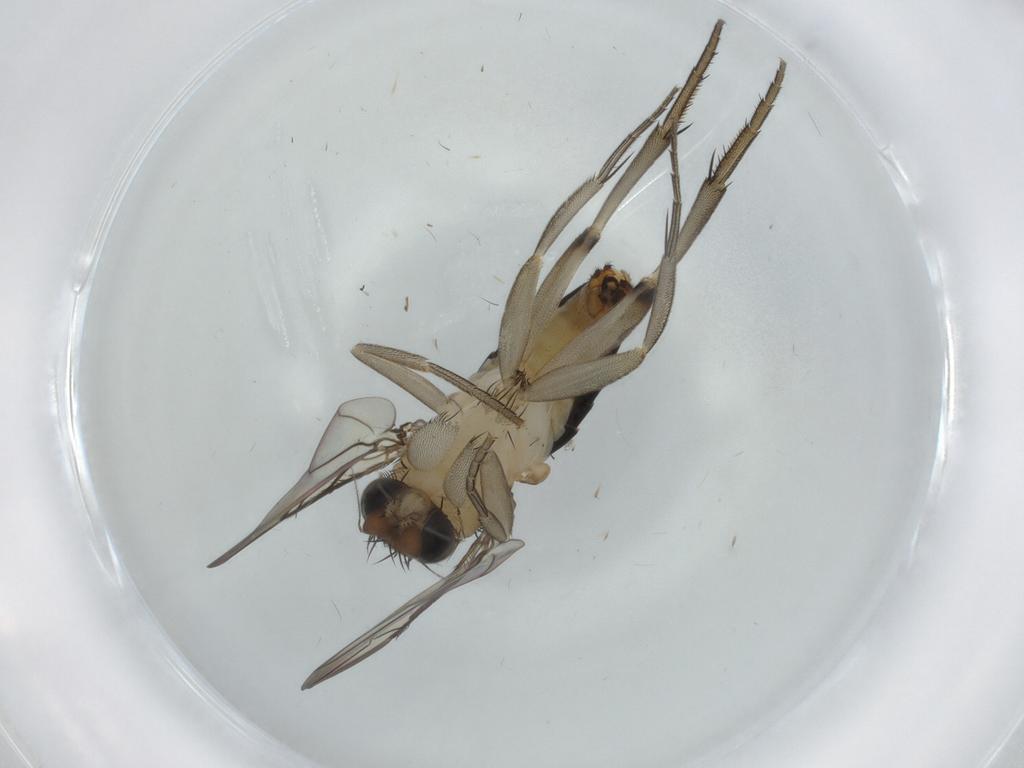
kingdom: Animalia
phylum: Arthropoda
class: Insecta
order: Diptera
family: Phoridae
